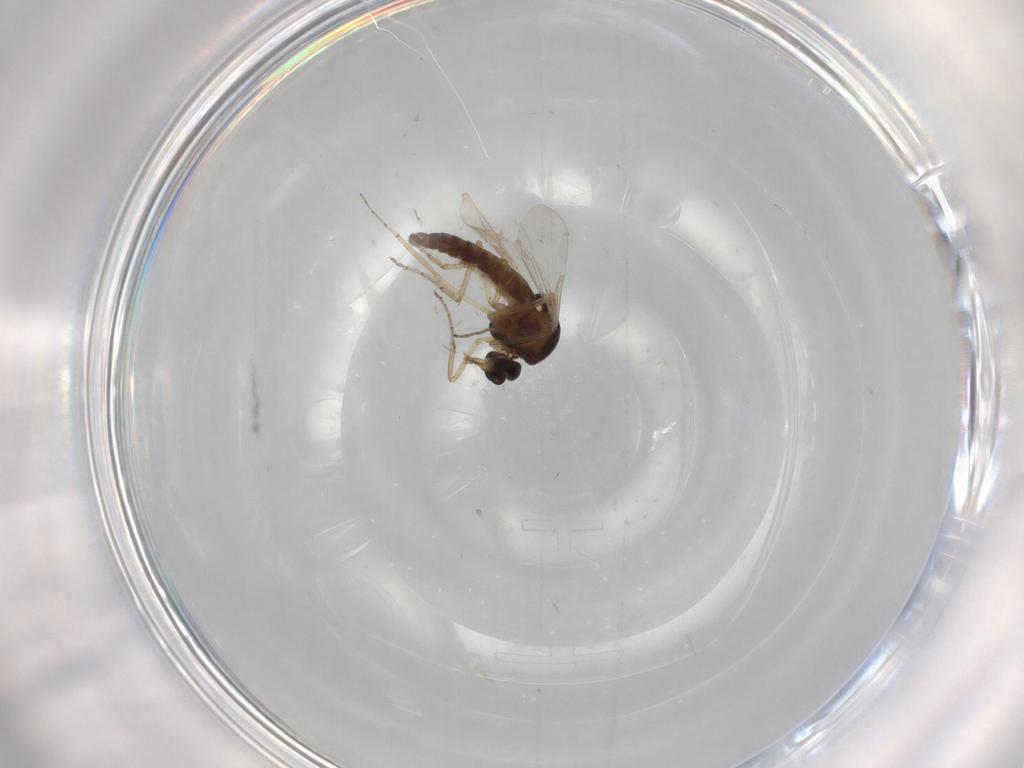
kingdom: Animalia
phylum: Arthropoda
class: Insecta
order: Diptera
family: Ceratopogonidae
